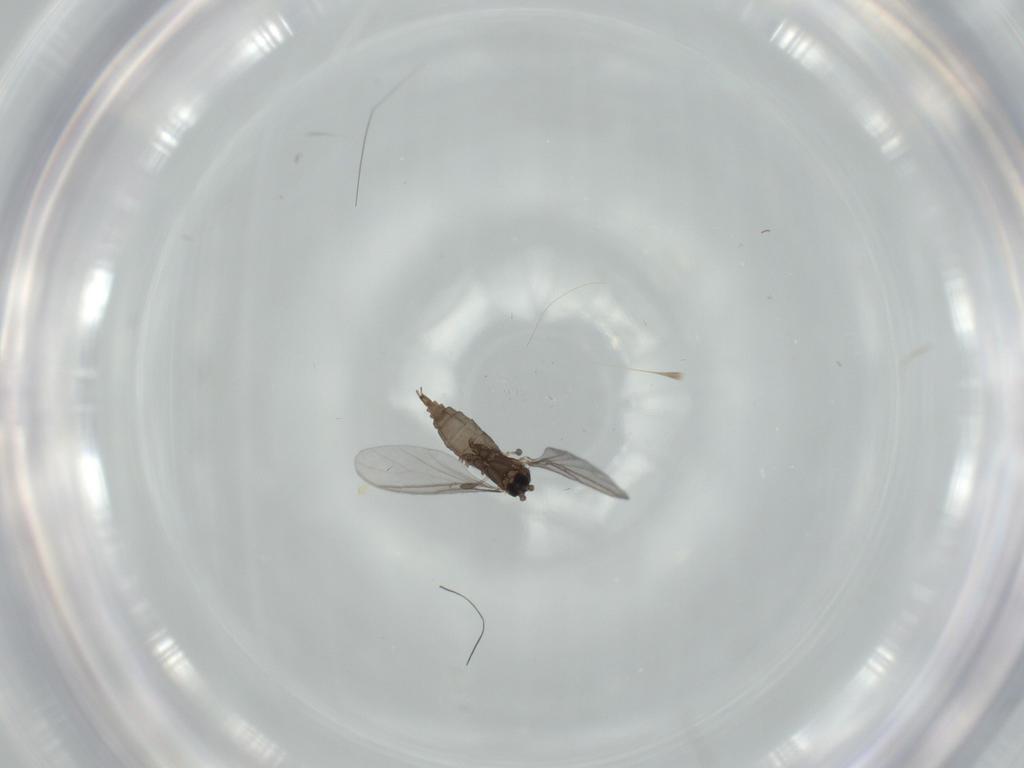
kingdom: Animalia
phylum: Arthropoda
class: Insecta
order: Diptera
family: Sciaridae
